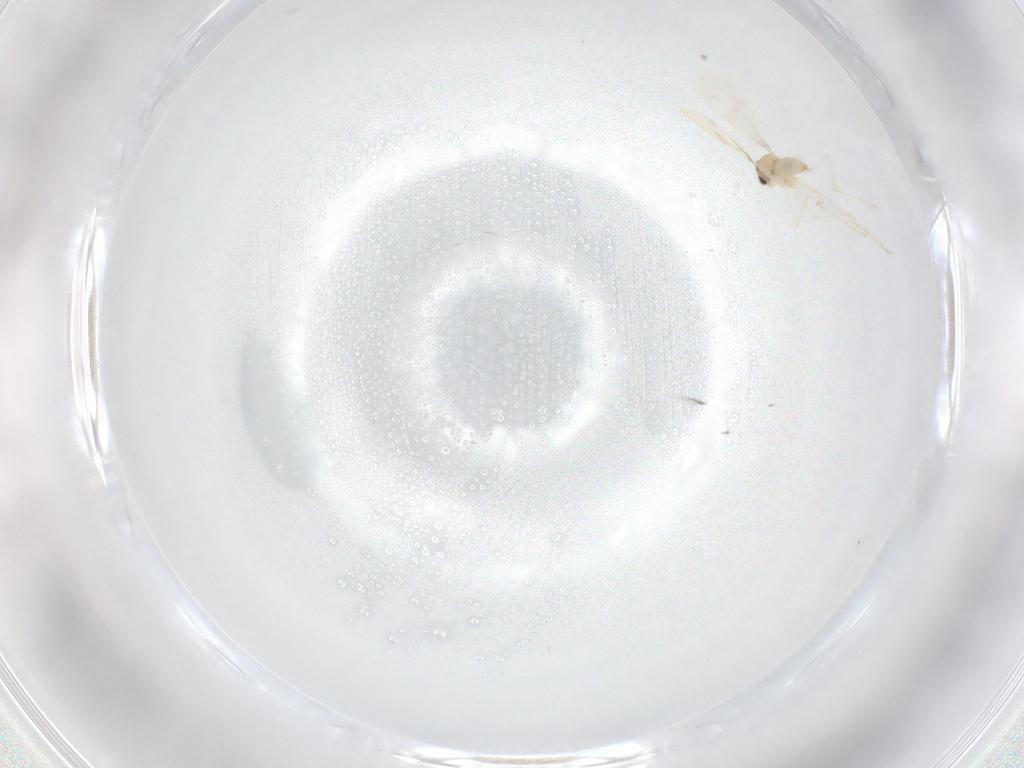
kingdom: Animalia
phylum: Arthropoda
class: Insecta
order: Diptera
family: Cecidomyiidae
